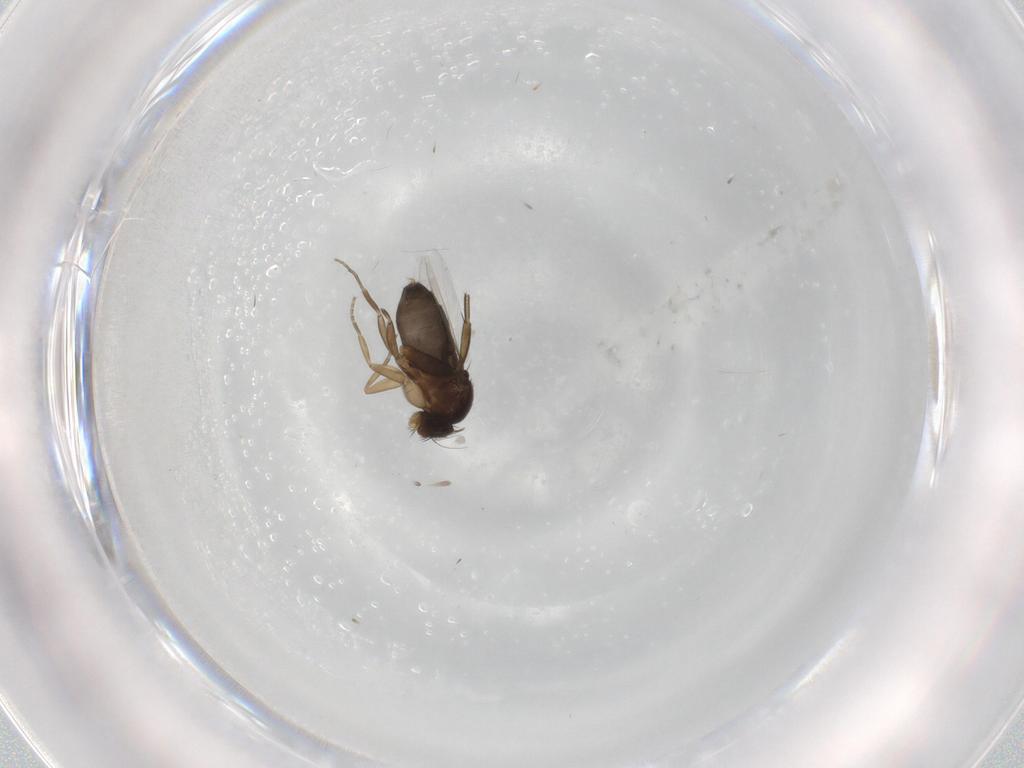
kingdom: Animalia
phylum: Arthropoda
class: Insecta
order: Diptera
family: Phoridae
